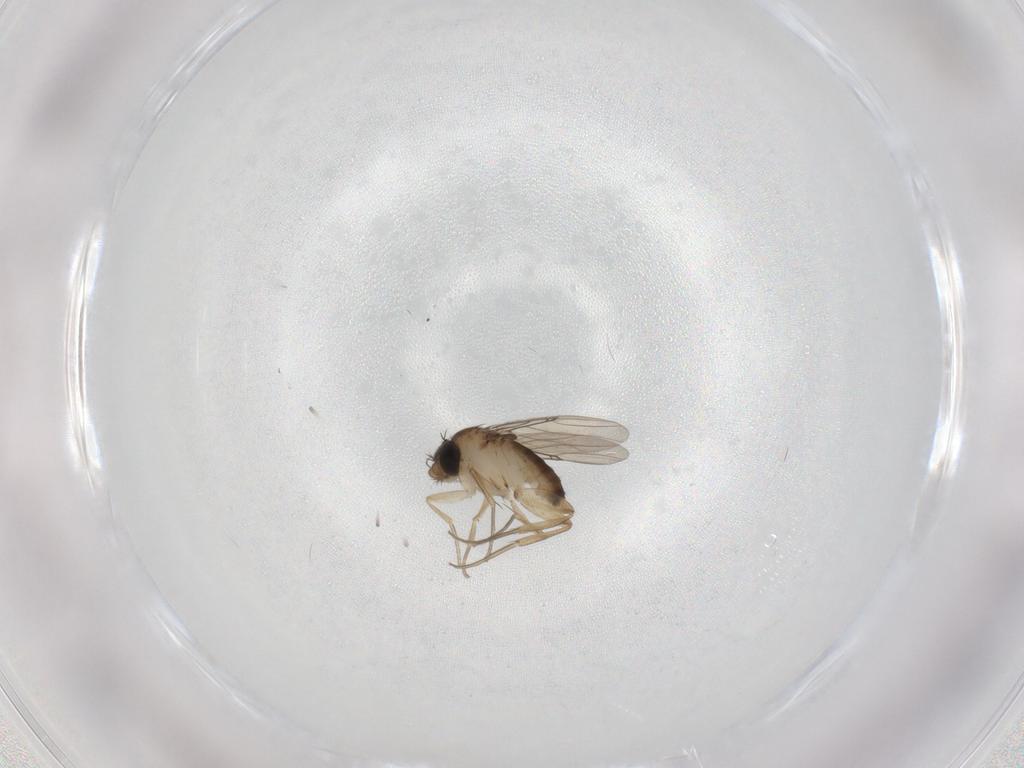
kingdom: Animalia
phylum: Arthropoda
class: Insecta
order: Diptera
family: Phoridae
